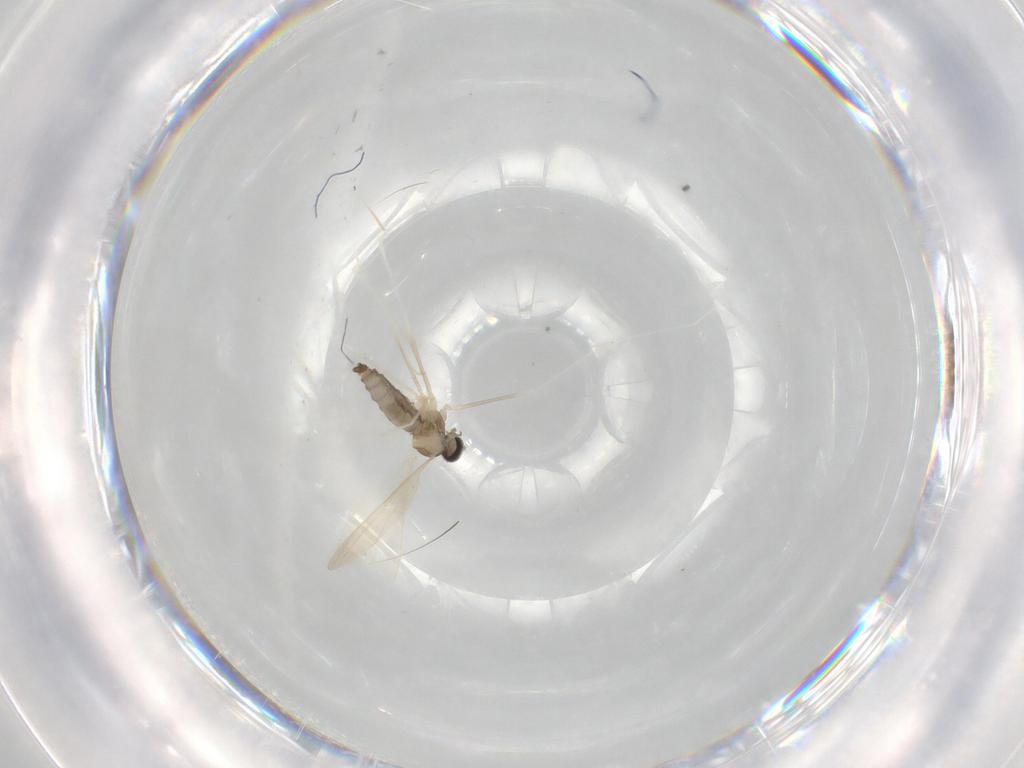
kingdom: Animalia
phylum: Arthropoda
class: Insecta
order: Diptera
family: Cecidomyiidae
